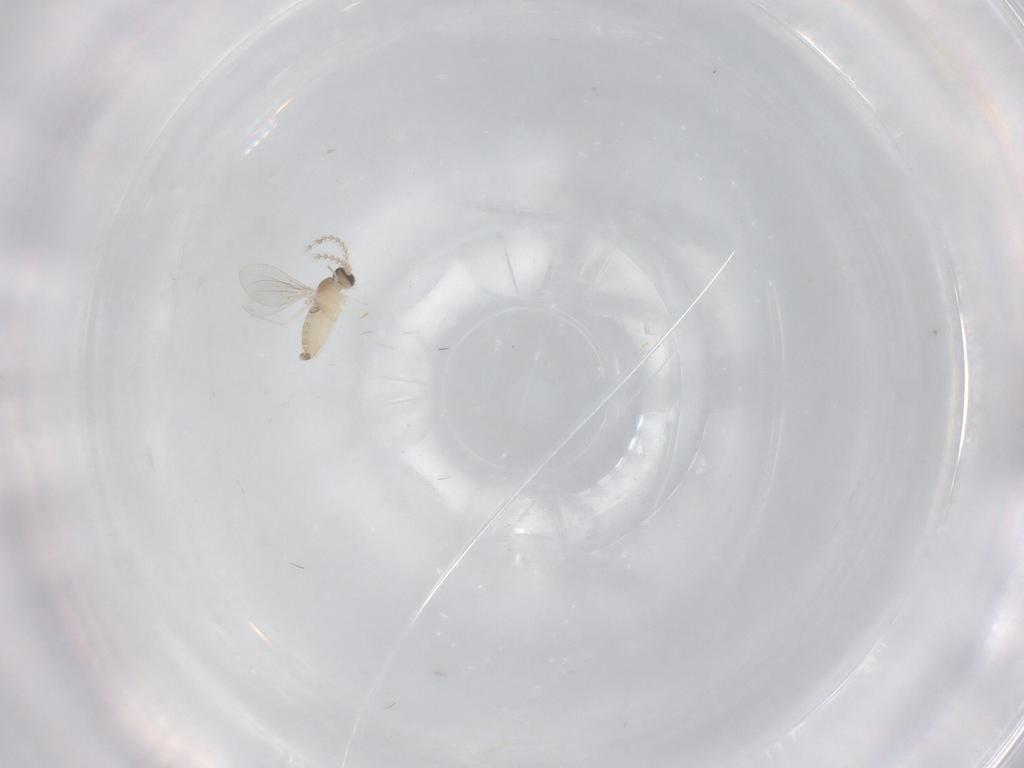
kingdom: Animalia
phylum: Arthropoda
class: Insecta
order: Diptera
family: Cecidomyiidae
